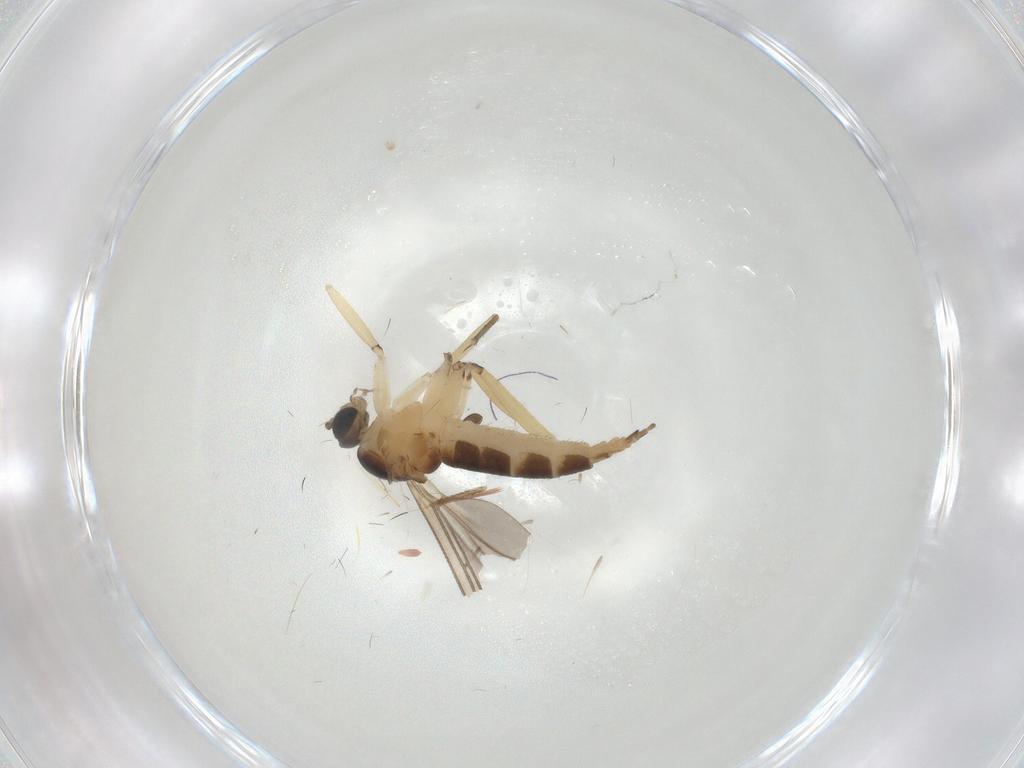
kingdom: Animalia
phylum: Arthropoda
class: Insecta
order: Diptera
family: Sciaridae
